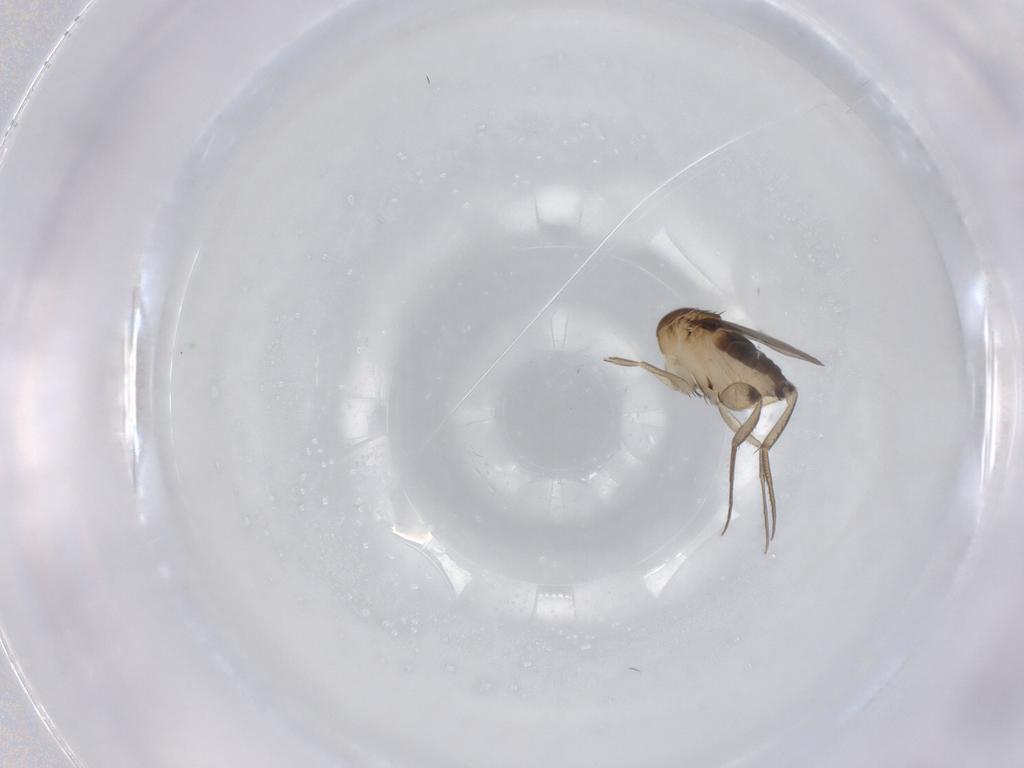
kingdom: Animalia
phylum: Arthropoda
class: Insecta
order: Diptera
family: Phoridae
